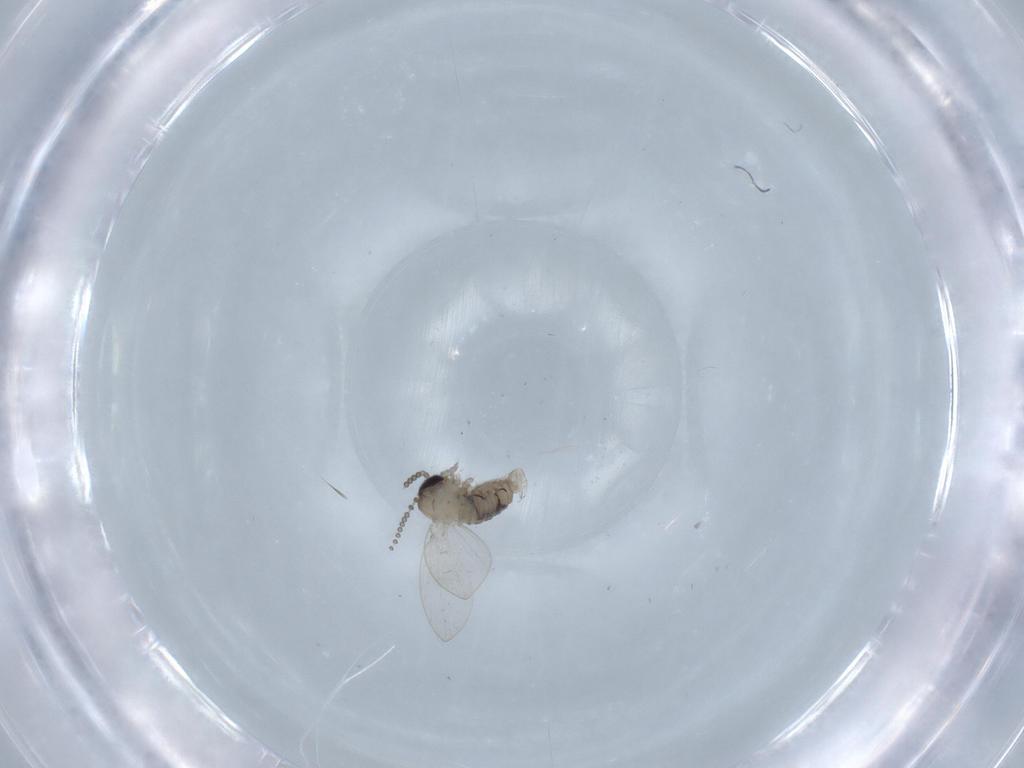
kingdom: Animalia
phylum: Arthropoda
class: Insecta
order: Diptera
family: Psychodidae
